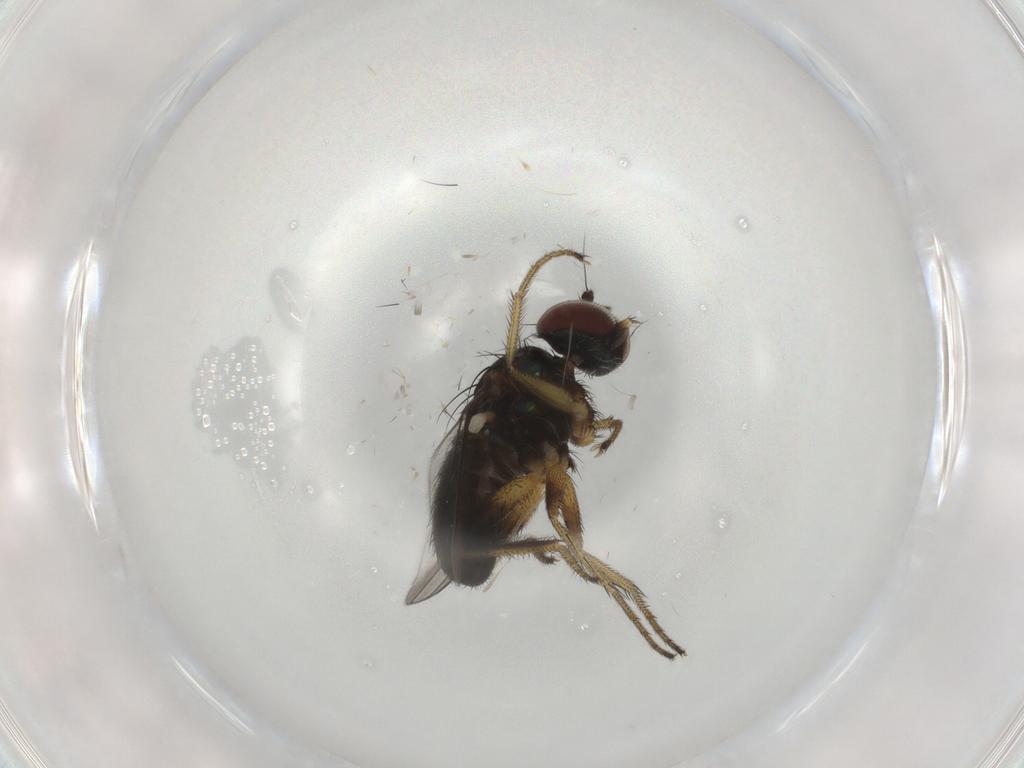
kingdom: Animalia
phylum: Arthropoda
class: Insecta
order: Diptera
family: Dolichopodidae
